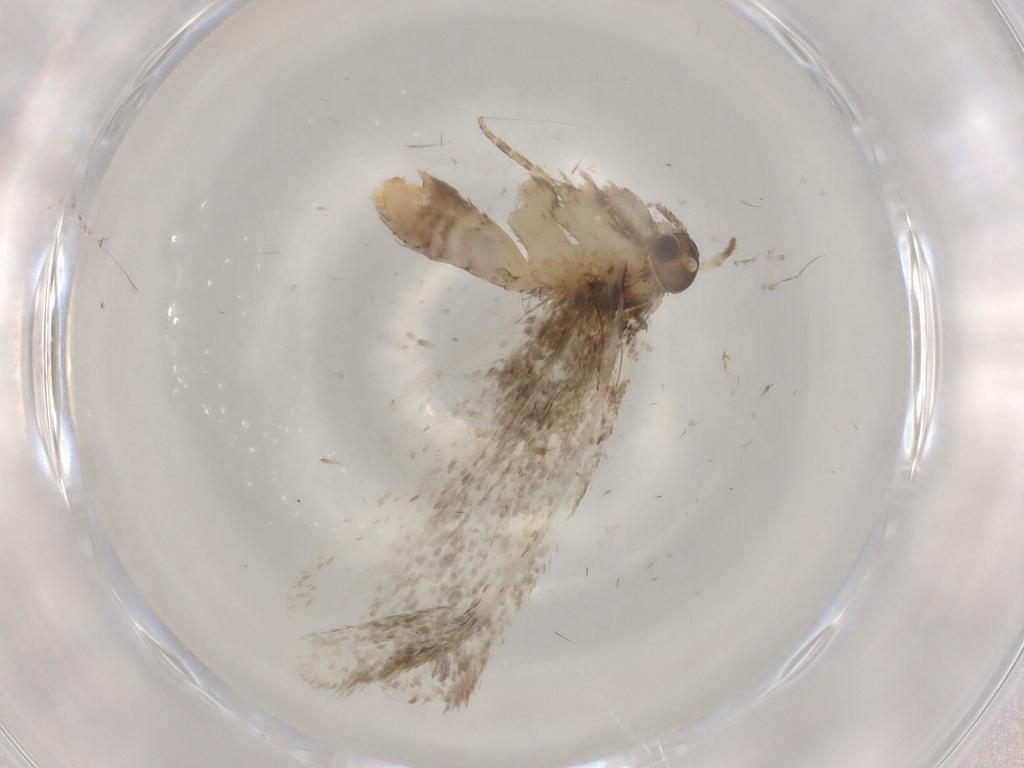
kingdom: Animalia
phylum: Arthropoda
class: Insecta
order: Lepidoptera
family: Dryadaulidae
